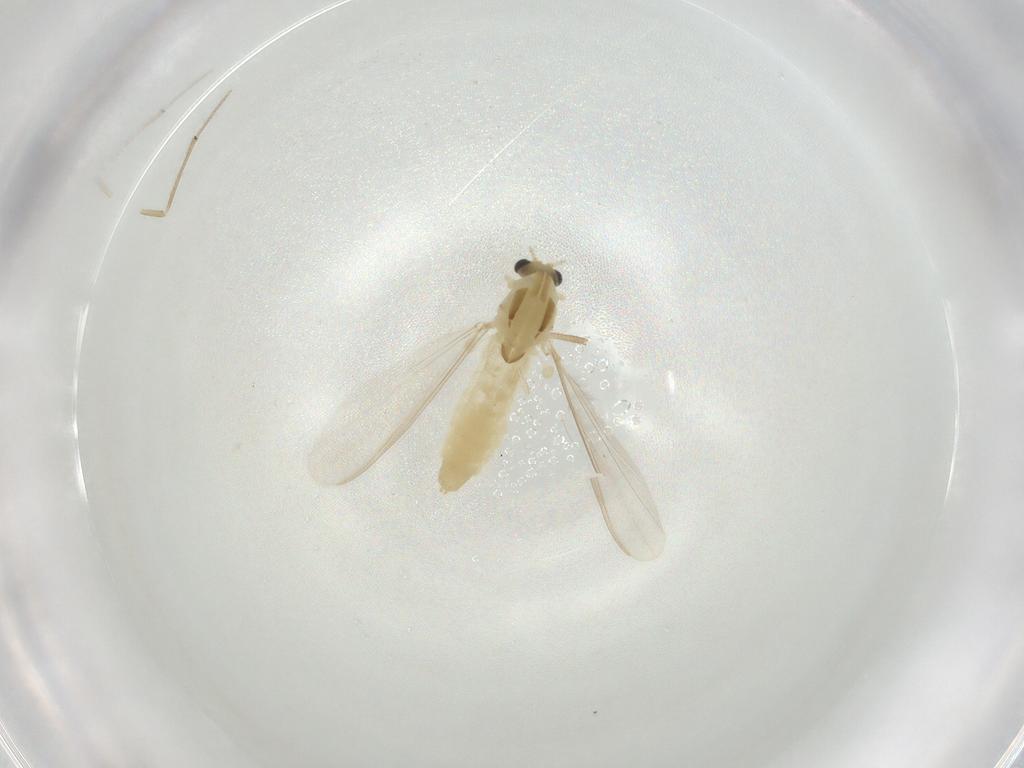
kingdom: Animalia
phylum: Arthropoda
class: Insecta
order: Diptera
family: Chironomidae
